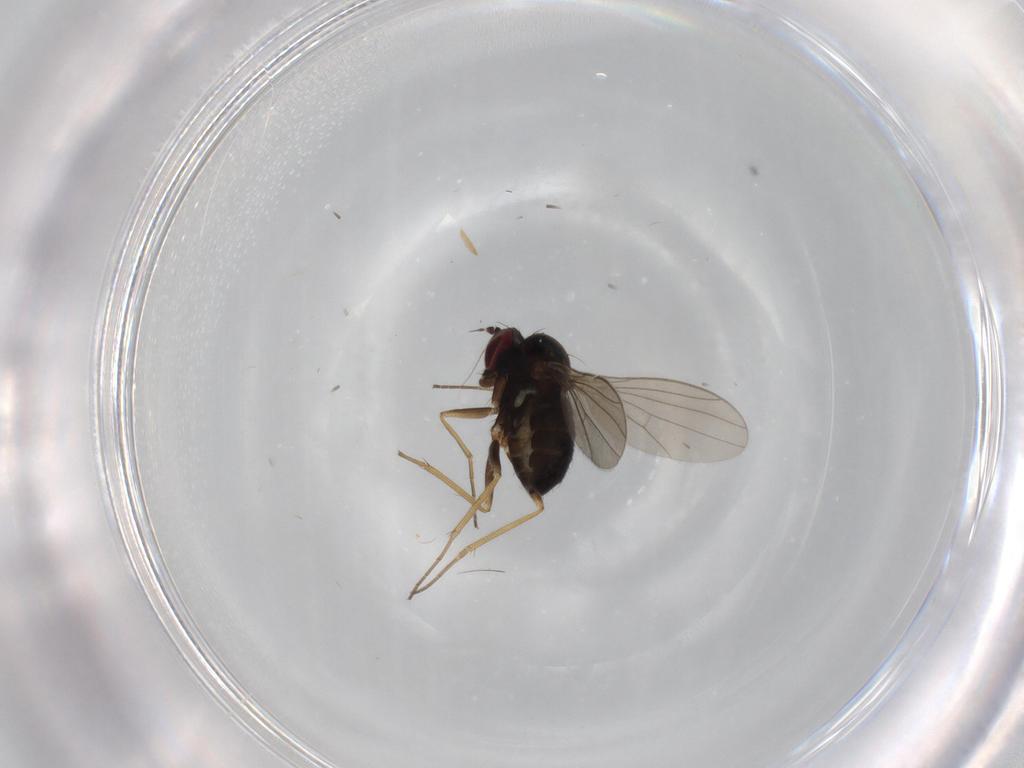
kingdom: Animalia
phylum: Arthropoda
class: Insecta
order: Diptera
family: Dolichopodidae
